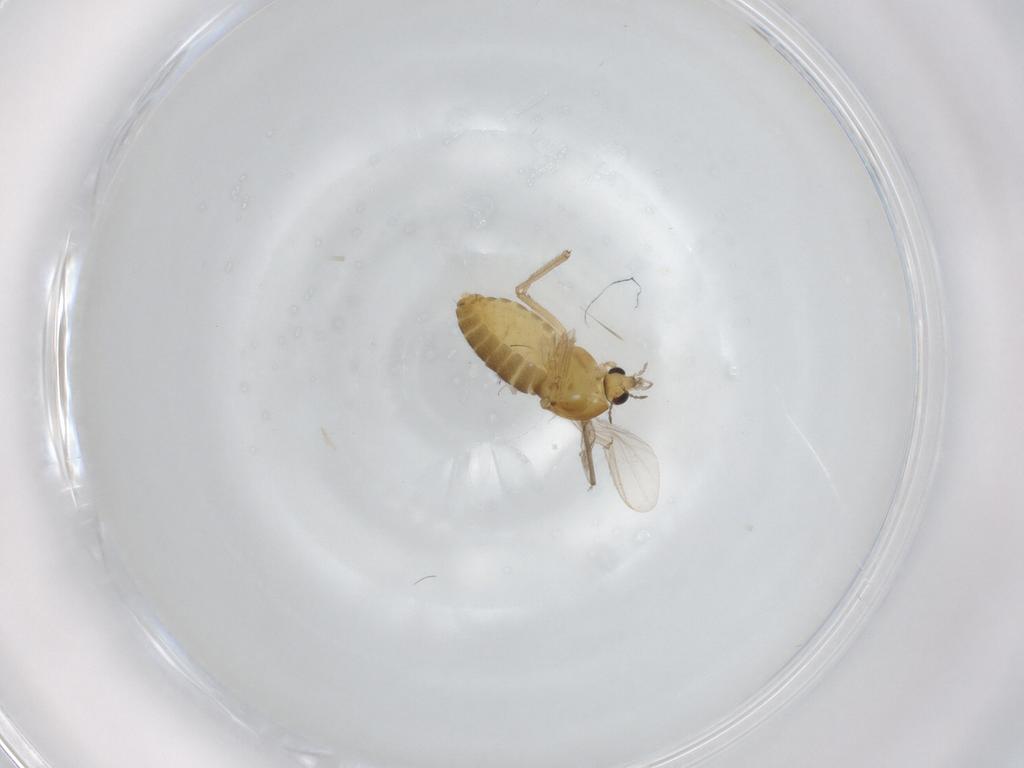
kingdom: Animalia
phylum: Arthropoda
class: Insecta
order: Diptera
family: Chironomidae
